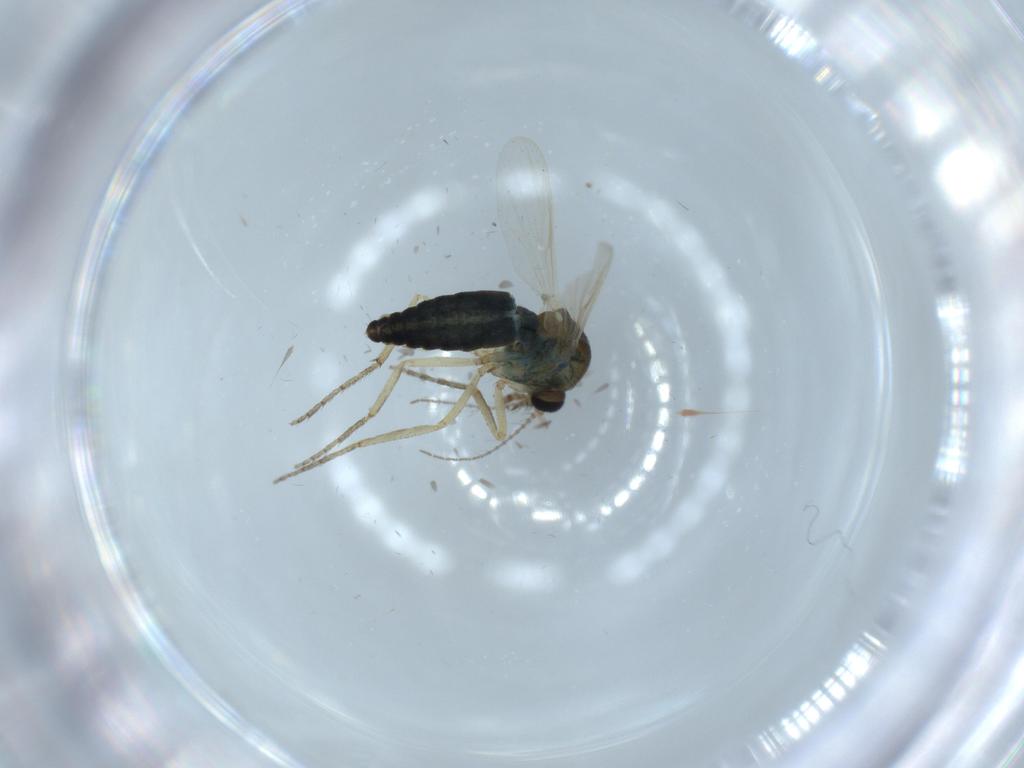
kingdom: Animalia
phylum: Arthropoda
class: Insecta
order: Diptera
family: Ceratopogonidae
